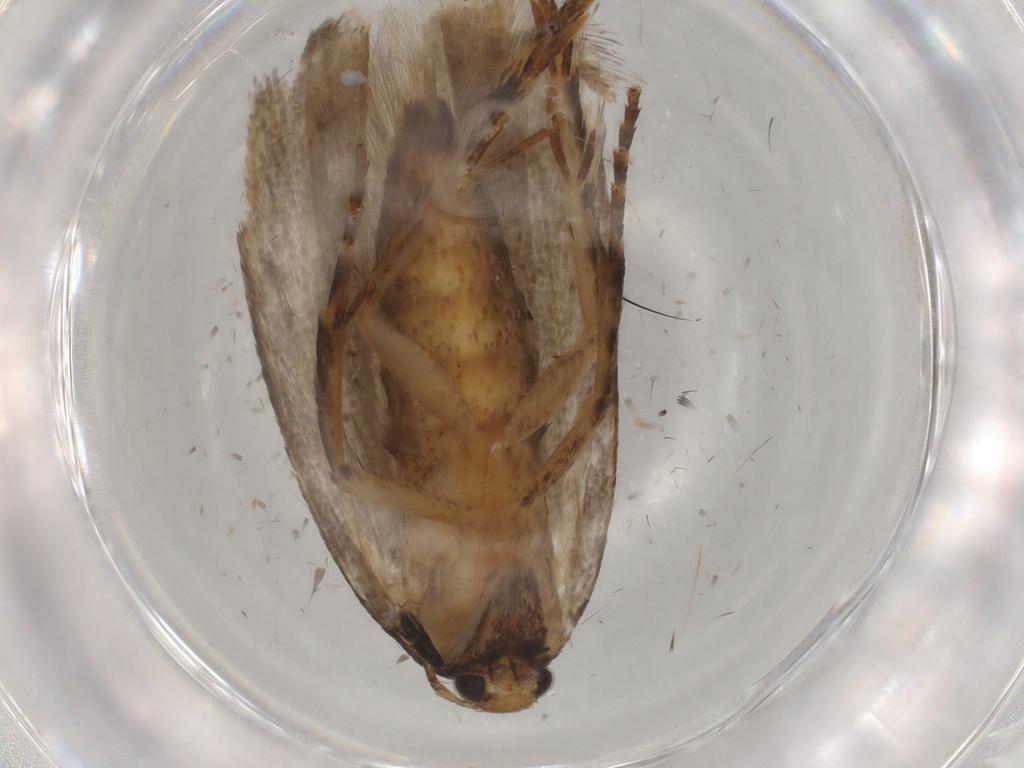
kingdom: Animalia
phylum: Arthropoda
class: Insecta
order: Lepidoptera
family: Gelechiidae
